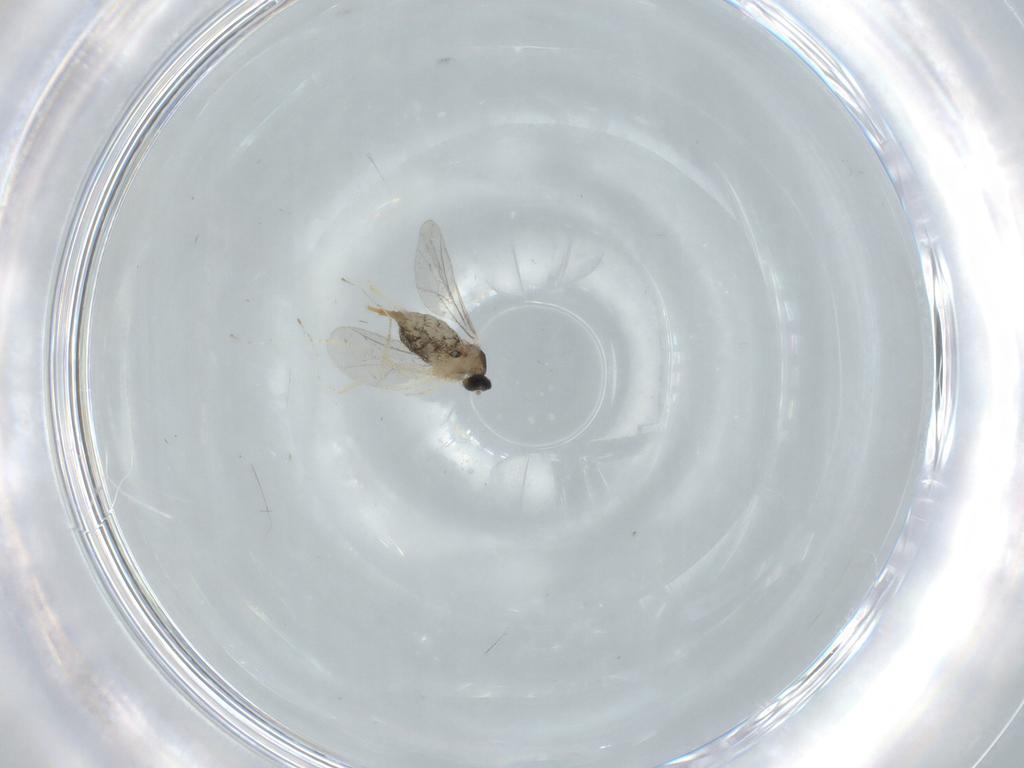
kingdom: Animalia
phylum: Arthropoda
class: Insecta
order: Diptera
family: Cecidomyiidae
